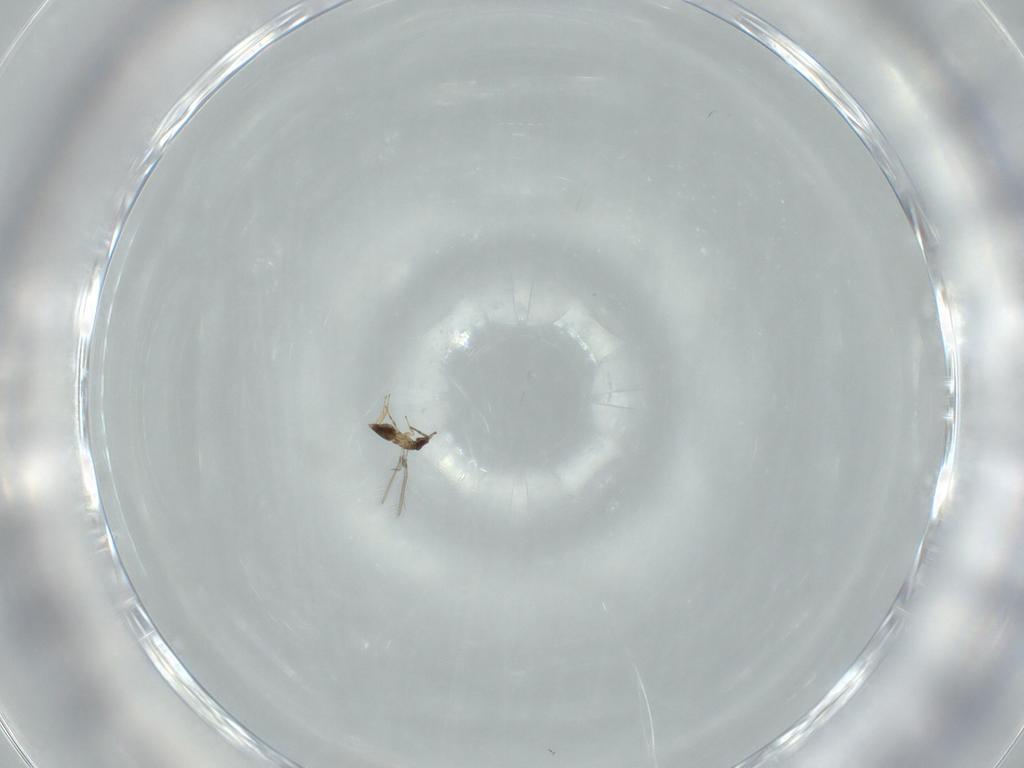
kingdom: Animalia
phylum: Arthropoda
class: Insecta
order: Hymenoptera
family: Mymaridae
